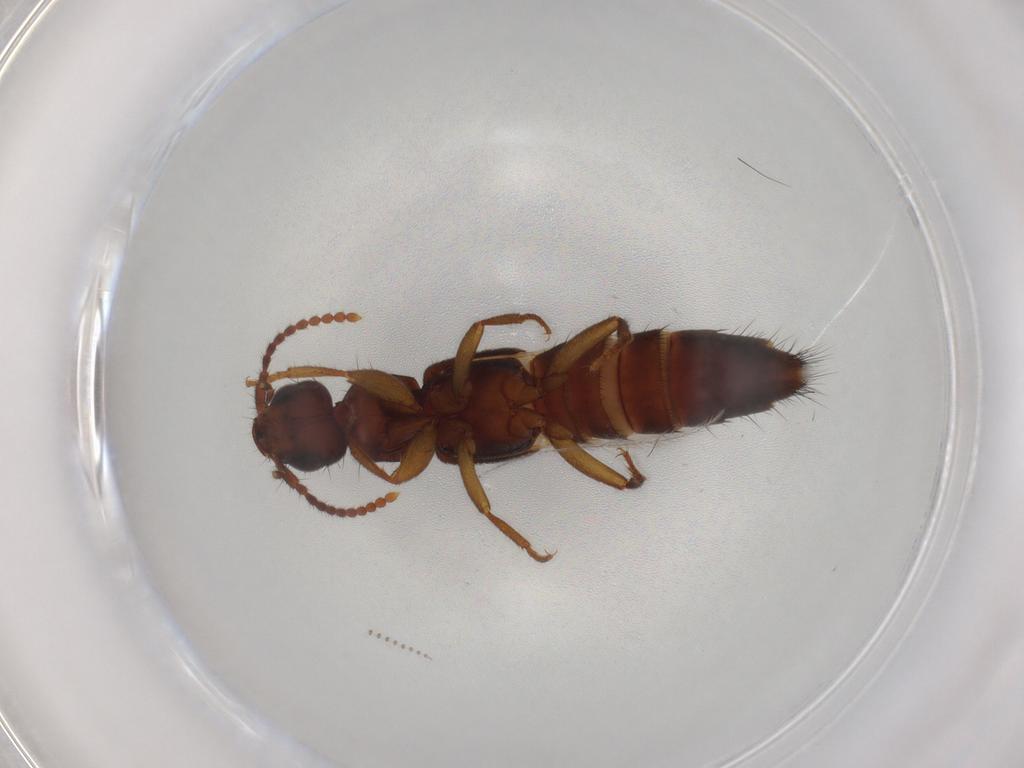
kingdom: Animalia
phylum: Arthropoda
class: Insecta
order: Coleoptera
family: Staphylinidae
